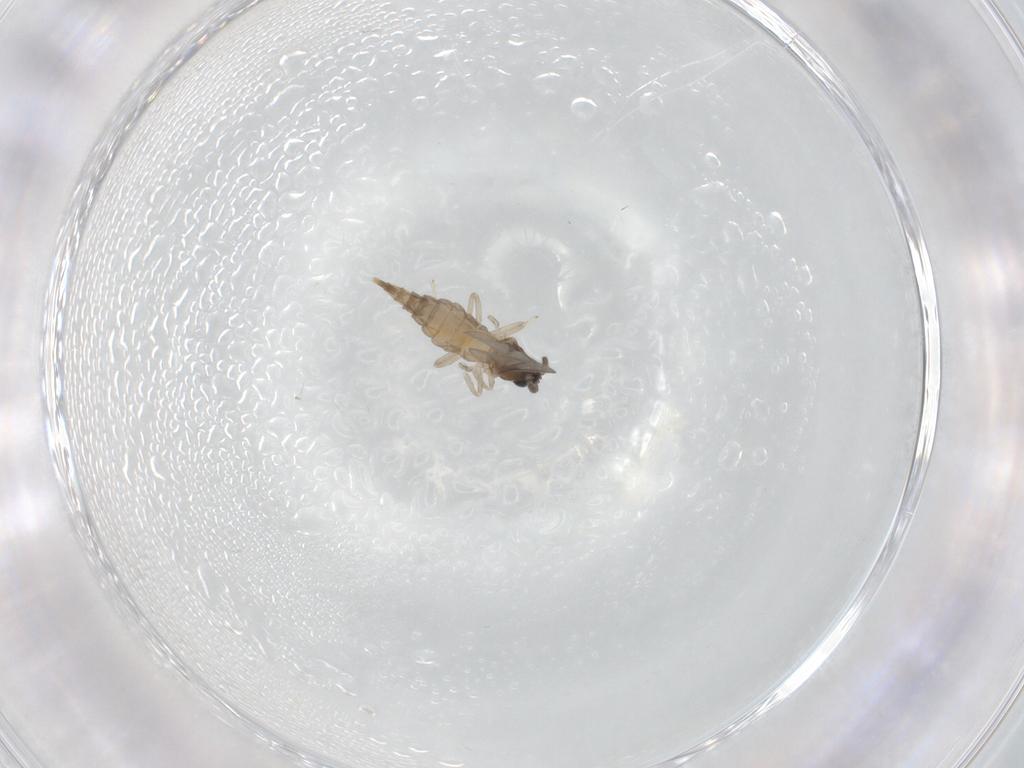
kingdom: Animalia
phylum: Arthropoda
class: Insecta
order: Diptera
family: Cecidomyiidae
